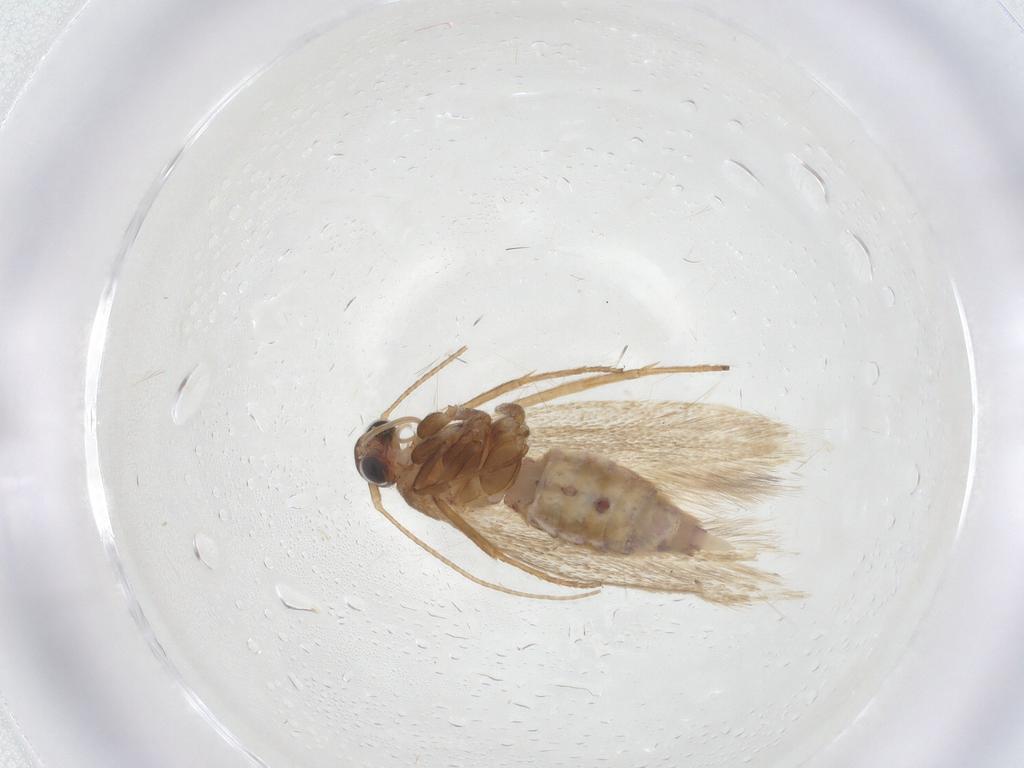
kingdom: Animalia
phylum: Arthropoda
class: Insecta
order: Lepidoptera
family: Cosmopterigidae
